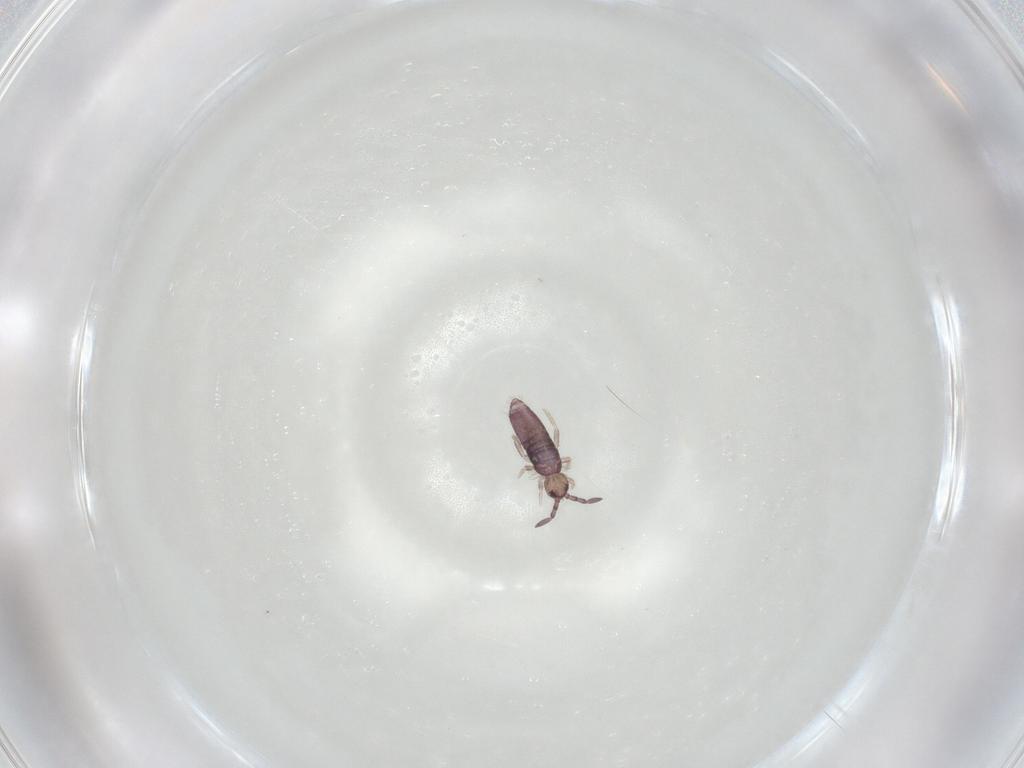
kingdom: Animalia
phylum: Arthropoda
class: Collembola
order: Entomobryomorpha
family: Entomobryidae
